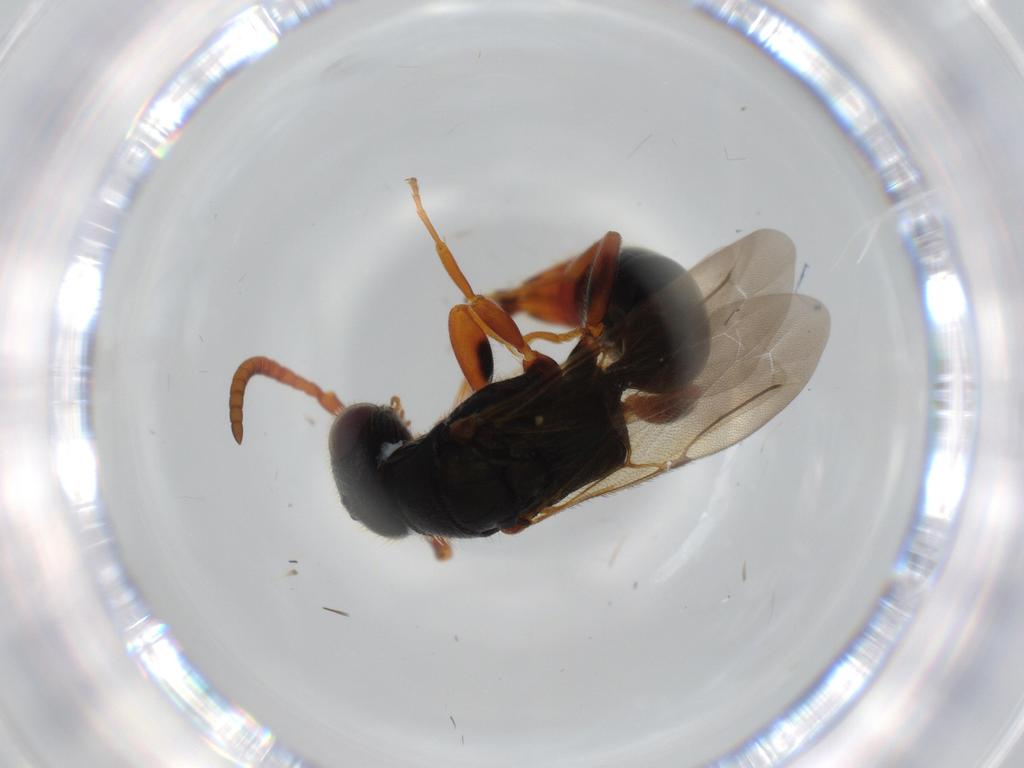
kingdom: Animalia
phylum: Arthropoda
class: Insecta
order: Hymenoptera
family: Bethylidae
